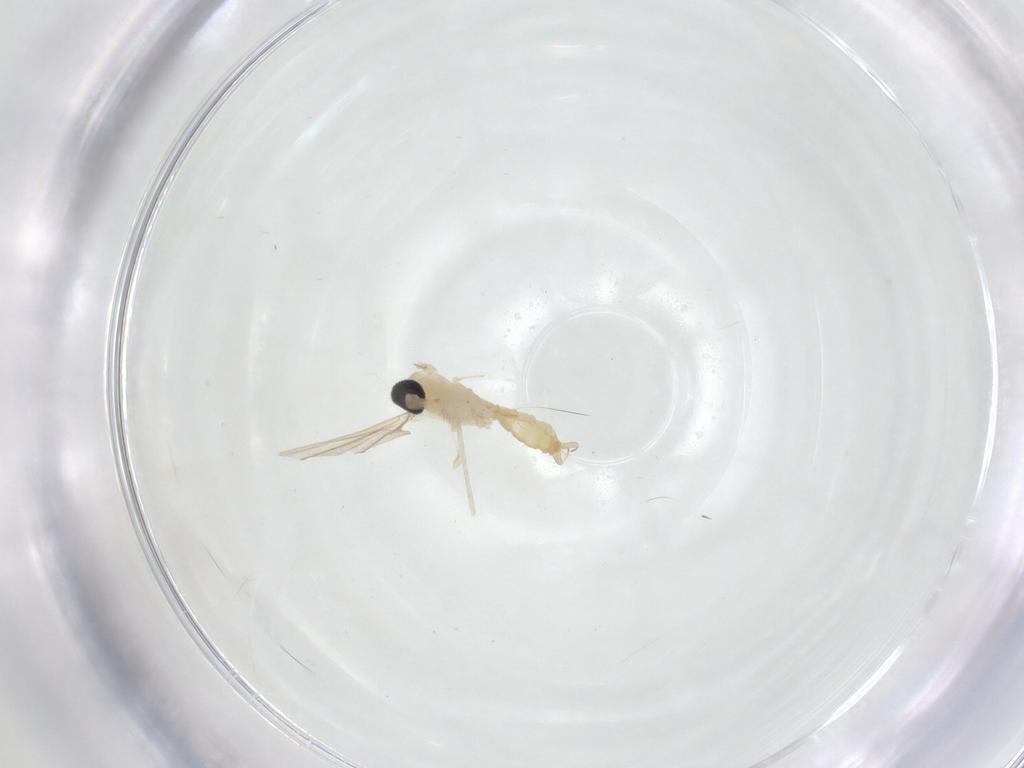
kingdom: Animalia
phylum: Arthropoda
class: Insecta
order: Diptera
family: Cecidomyiidae
